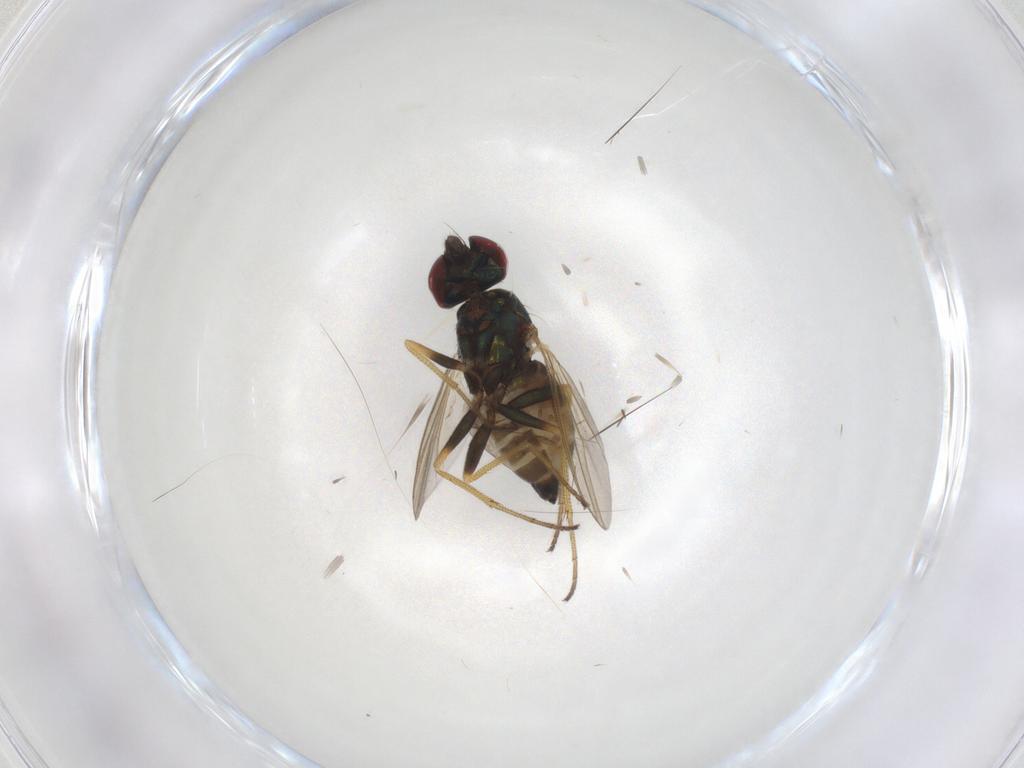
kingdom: Animalia
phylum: Arthropoda
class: Insecta
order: Diptera
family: Dolichopodidae
